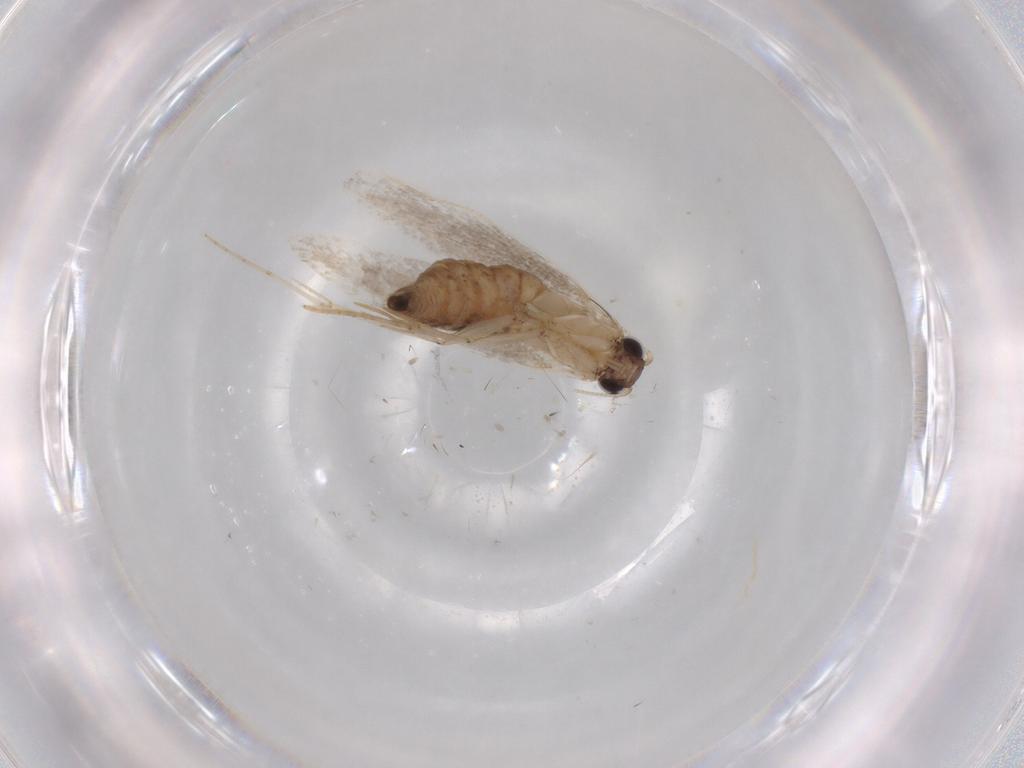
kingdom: Animalia
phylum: Arthropoda
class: Insecta
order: Lepidoptera
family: Tineidae
